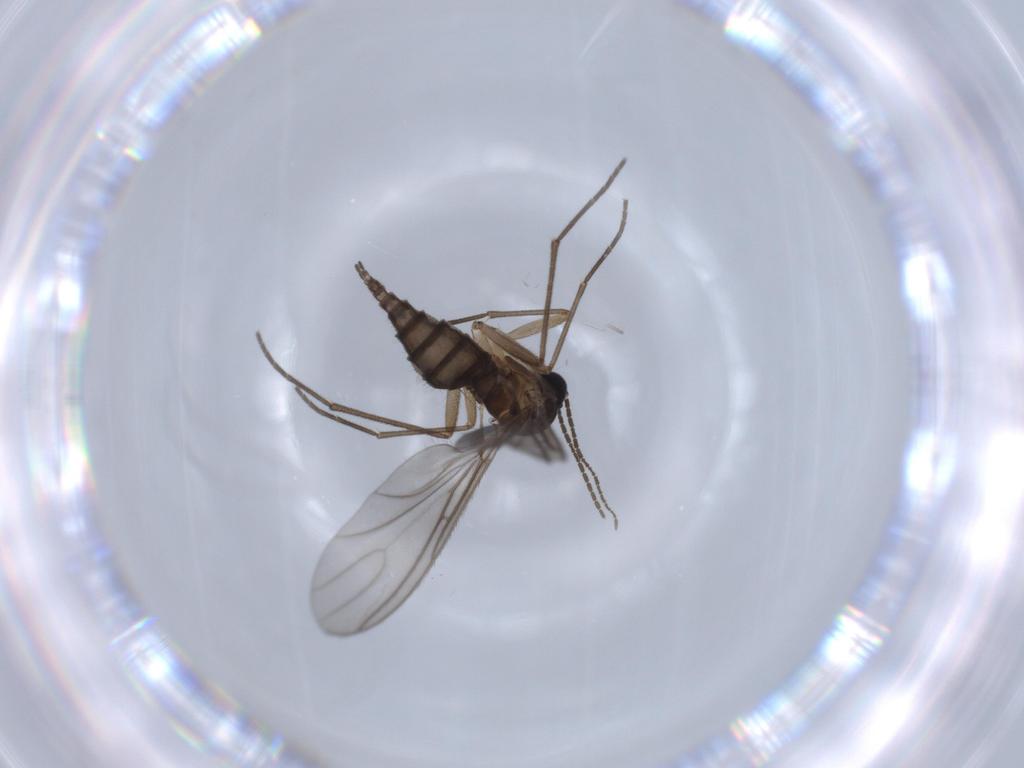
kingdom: Animalia
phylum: Arthropoda
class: Insecta
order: Diptera
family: Sciaridae
